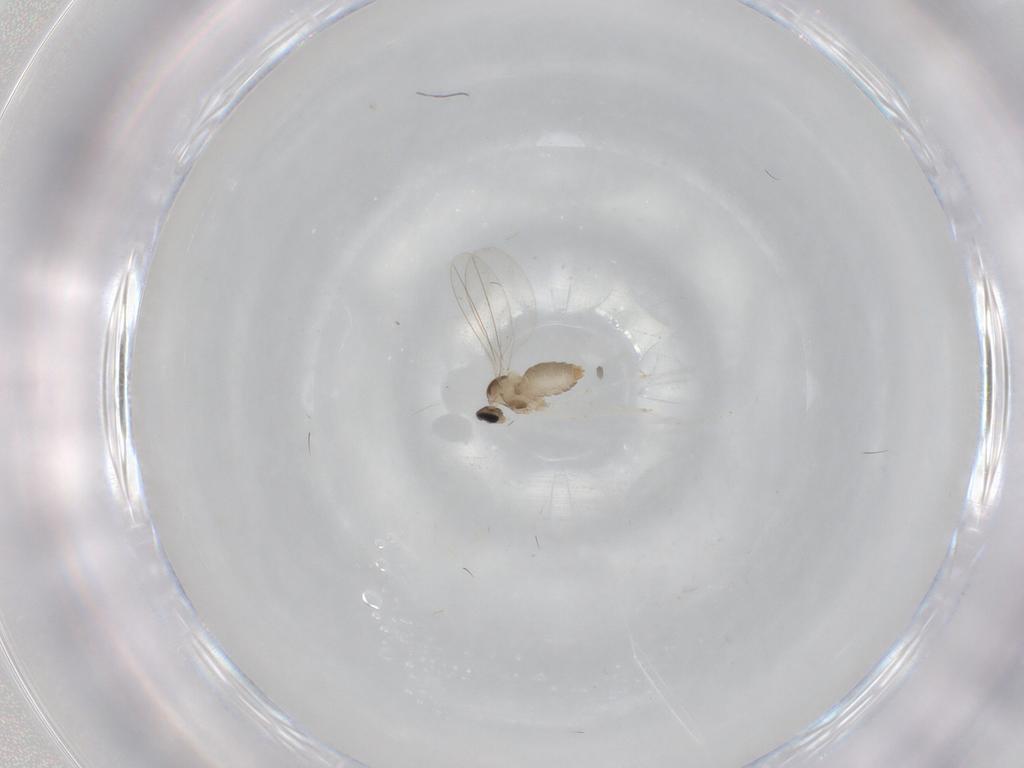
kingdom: Animalia
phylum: Arthropoda
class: Insecta
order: Diptera
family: Cecidomyiidae
